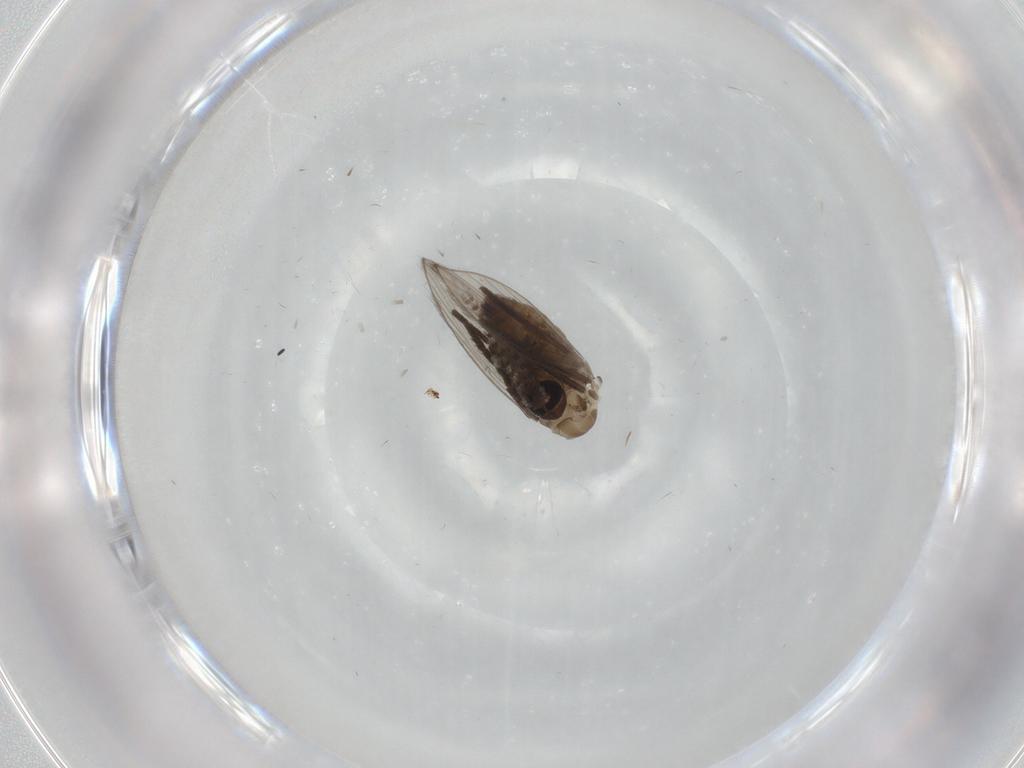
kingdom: Animalia
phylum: Arthropoda
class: Insecta
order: Diptera
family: Psychodidae
